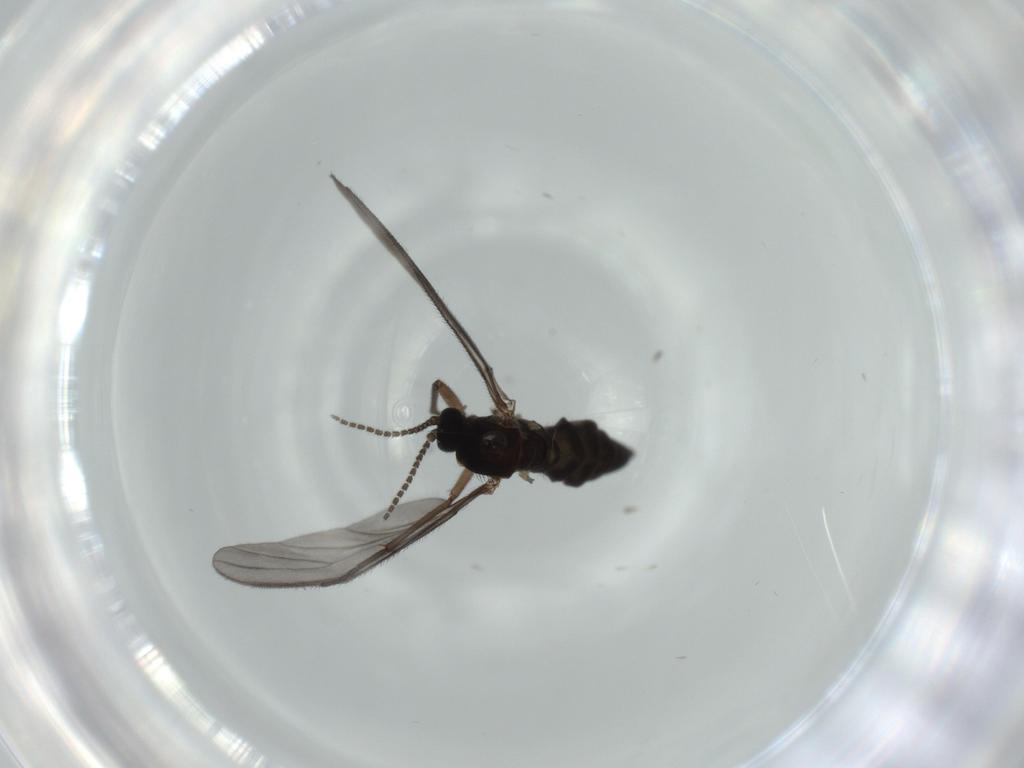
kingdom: Animalia
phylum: Arthropoda
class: Insecta
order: Diptera
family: Sciaridae
